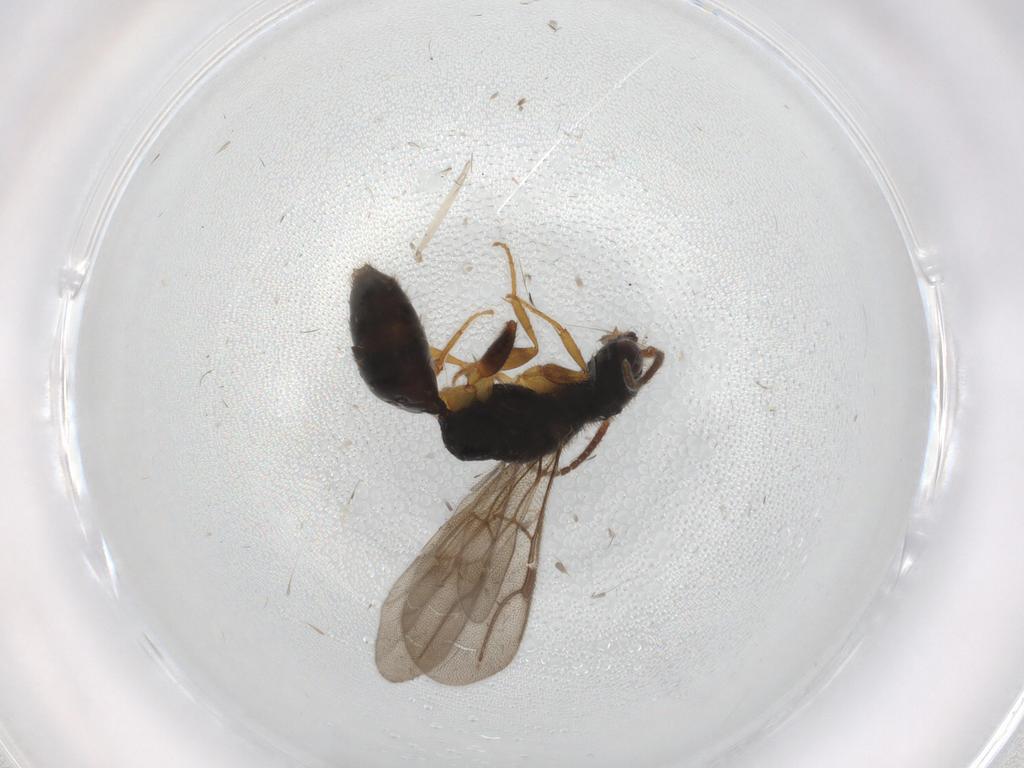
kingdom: Animalia
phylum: Arthropoda
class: Insecta
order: Hymenoptera
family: Bethylidae
